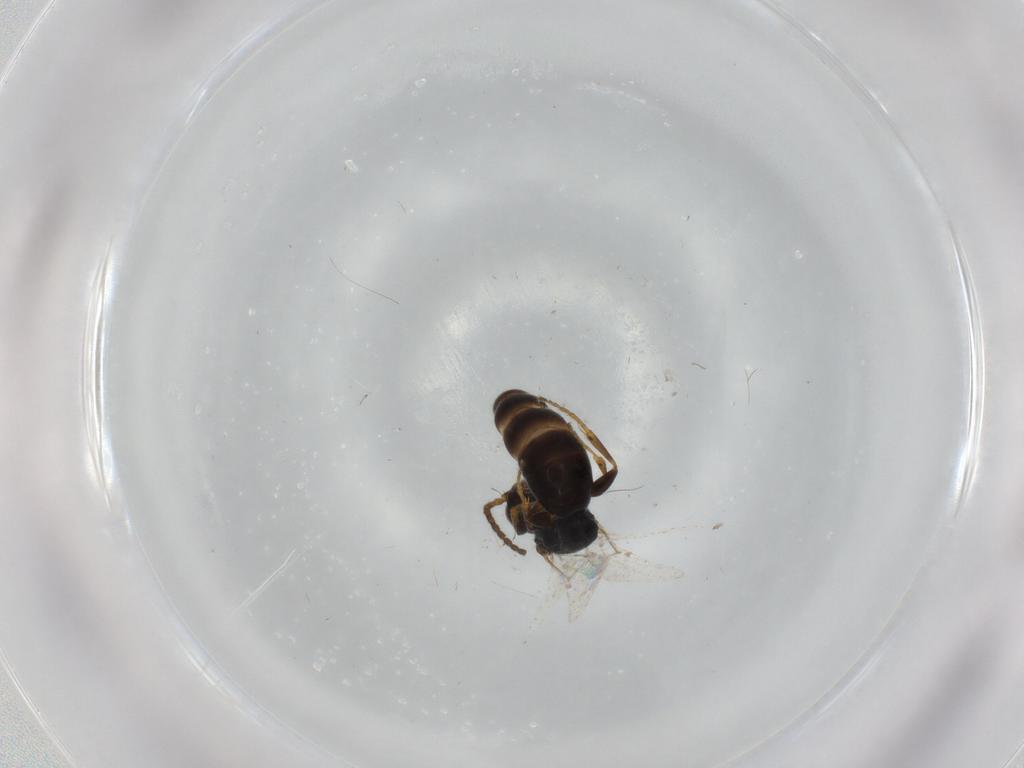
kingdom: Animalia
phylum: Arthropoda
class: Insecta
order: Hymenoptera
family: Bethylidae
